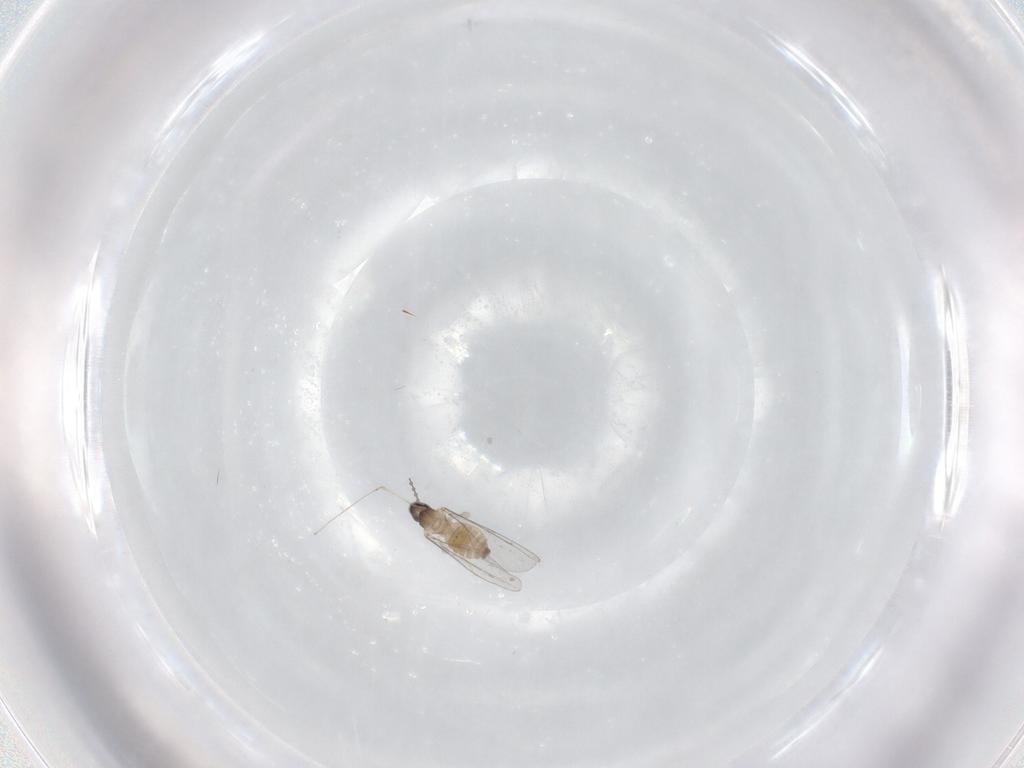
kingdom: Animalia
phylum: Arthropoda
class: Insecta
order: Diptera
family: Cecidomyiidae
